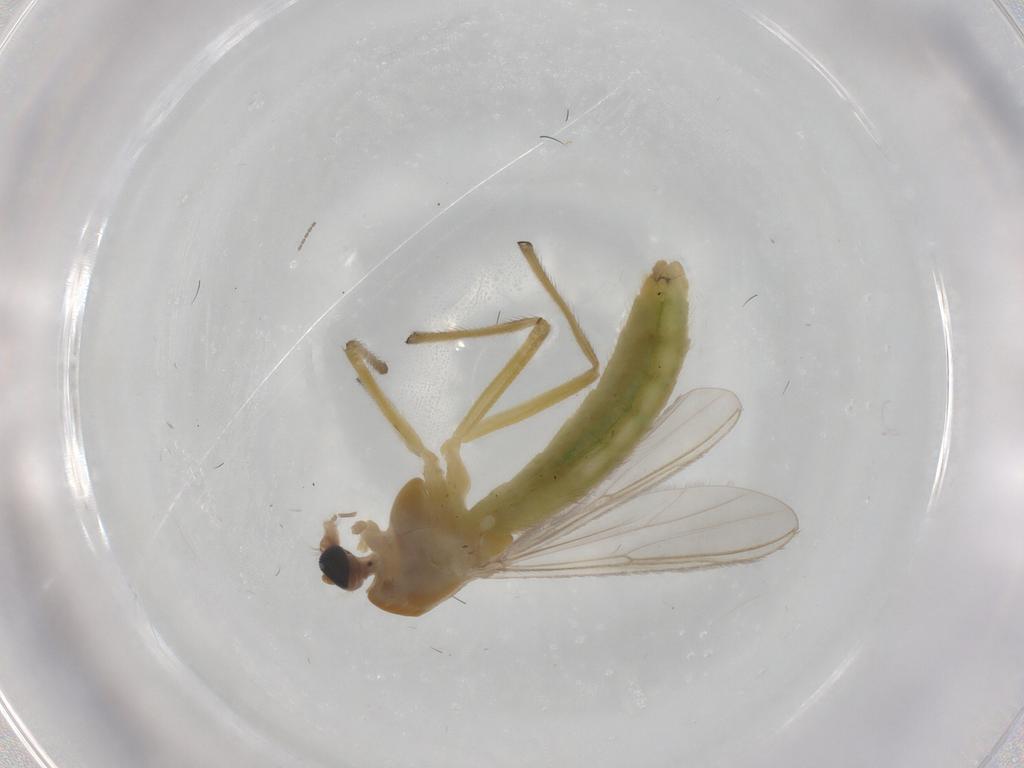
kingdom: Animalia
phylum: Arthropoda
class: Insecta
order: Diptera
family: Chironomidae
